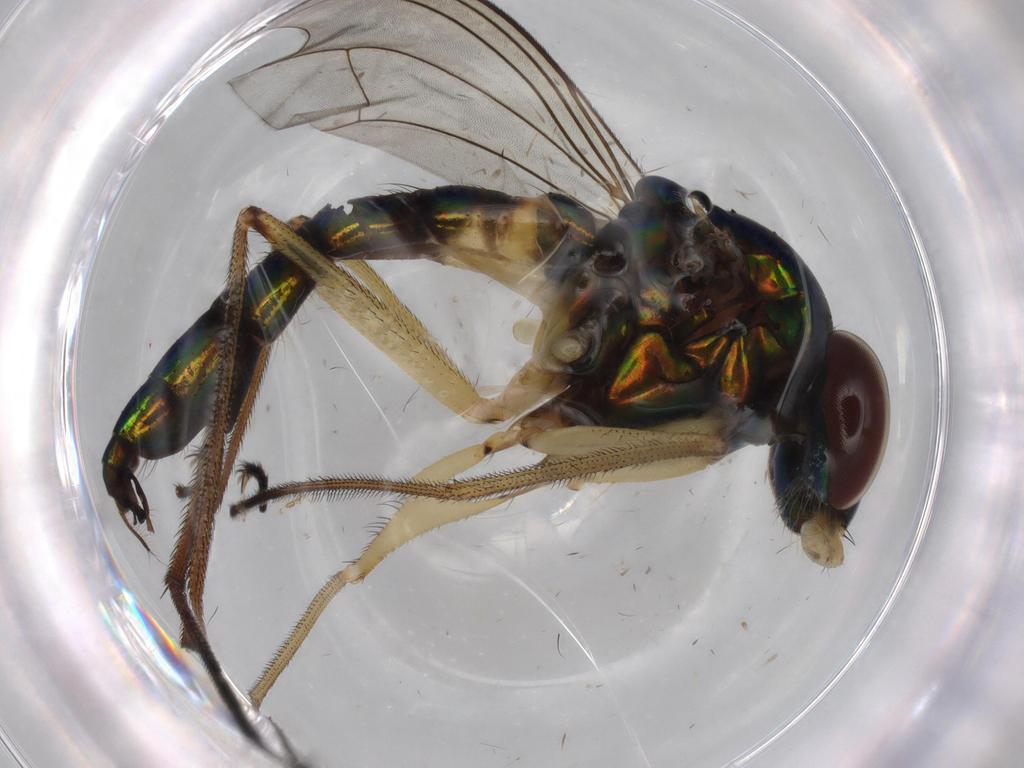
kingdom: Animalia
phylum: Arthropoda
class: Insecta
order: Diptera
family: Dolichopodidae
